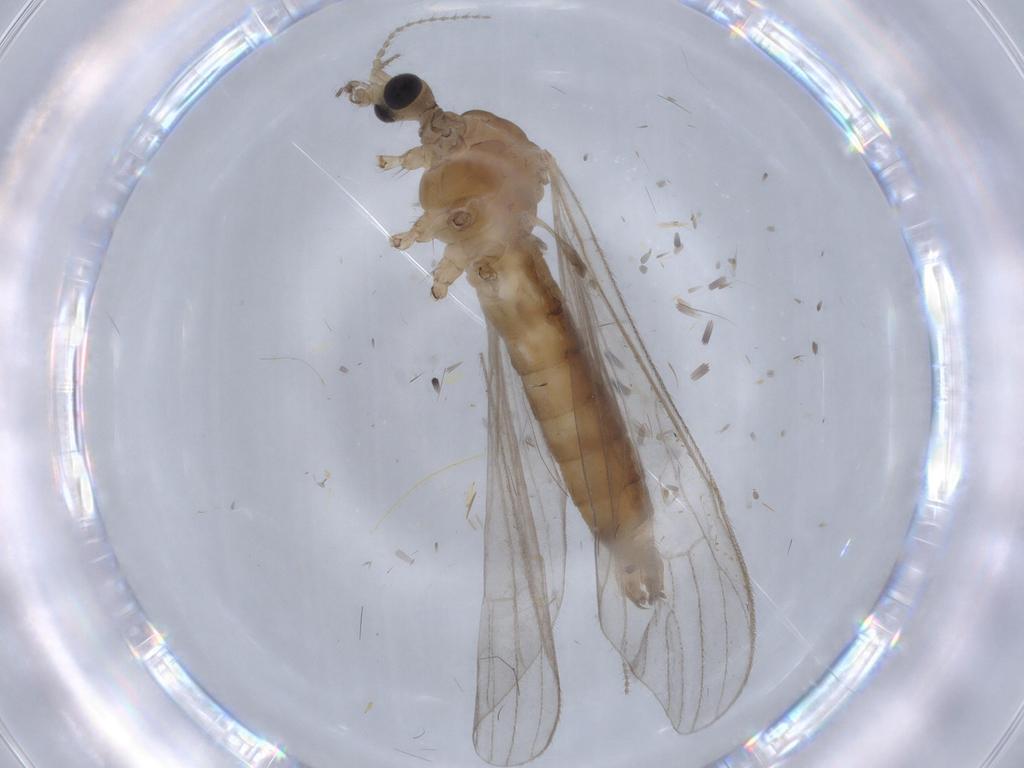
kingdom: Animalia
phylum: Arthropoda
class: Insecta
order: Diptera
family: Limoniidae
